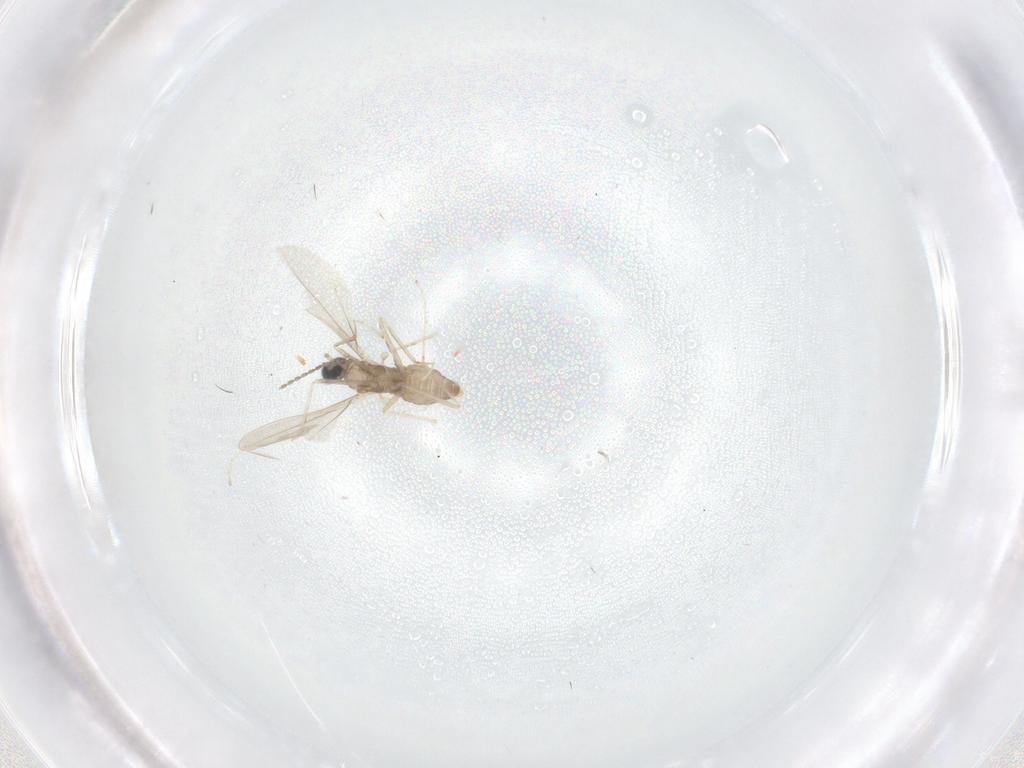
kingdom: Animalia
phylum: Arthropoda
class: Insecta
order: Diptera
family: Cecidomyiidae
